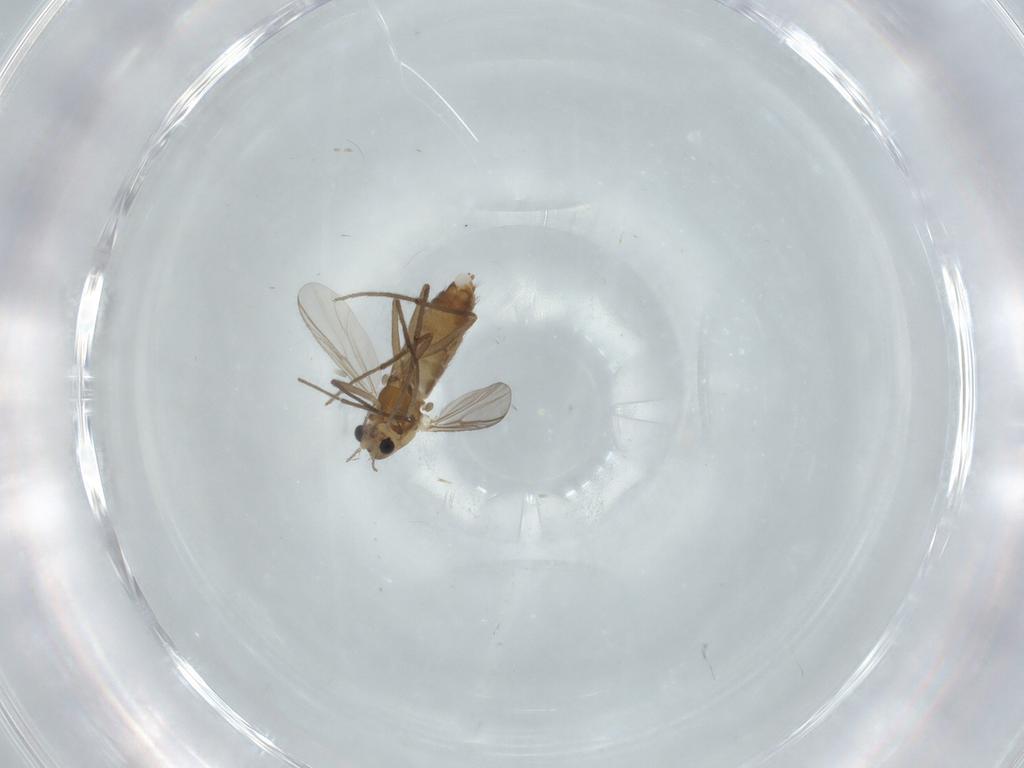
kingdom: Animalia
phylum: Arthropoda
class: Insecta
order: Diptera
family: Chironomidae
